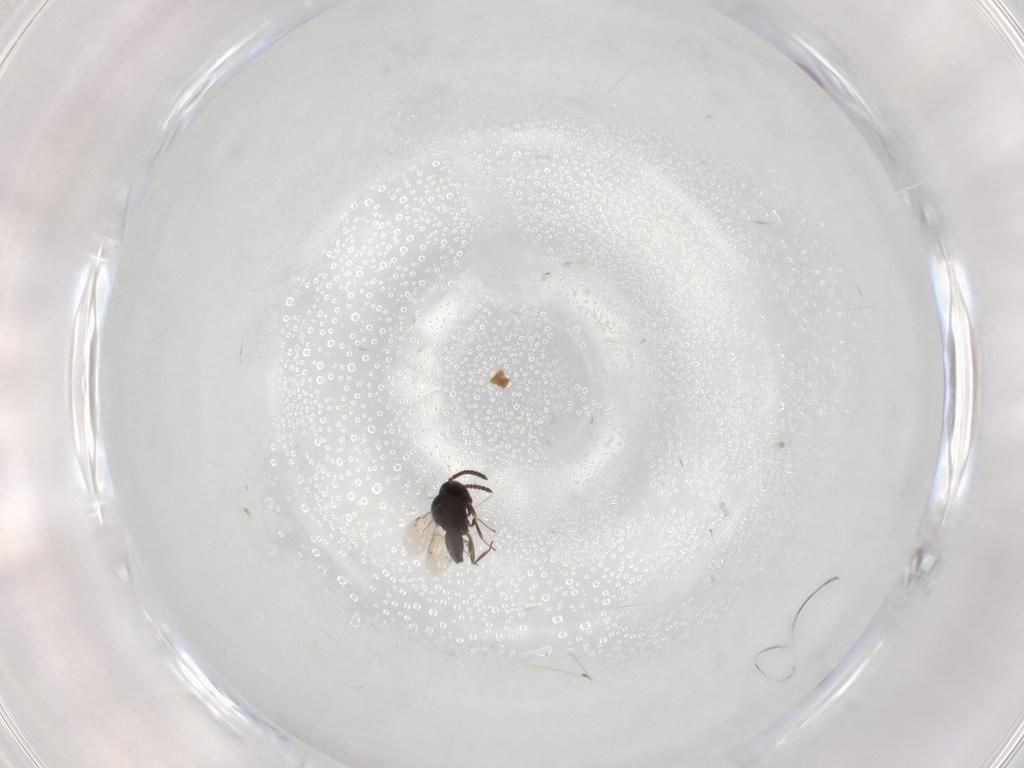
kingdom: Animalia
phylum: Arthropoda
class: Insecta
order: Hymenoptera
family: Scelionidae
